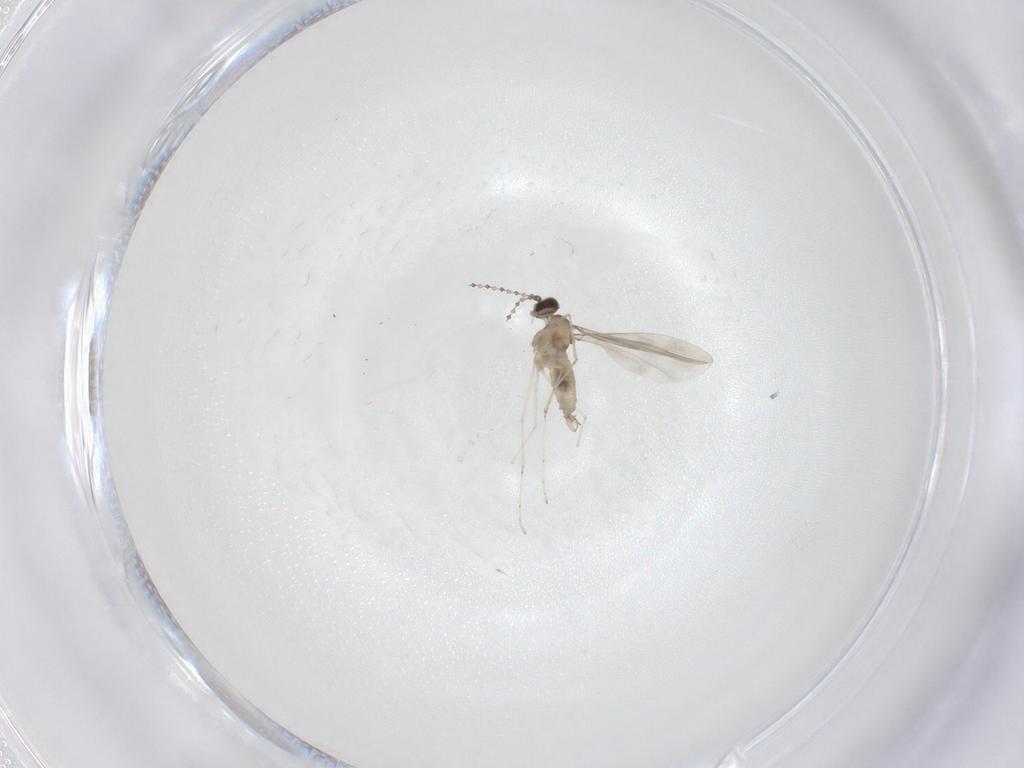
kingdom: Animalia
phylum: Arthropoda
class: Insecta
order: Diptera
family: Cecidomyiidae
